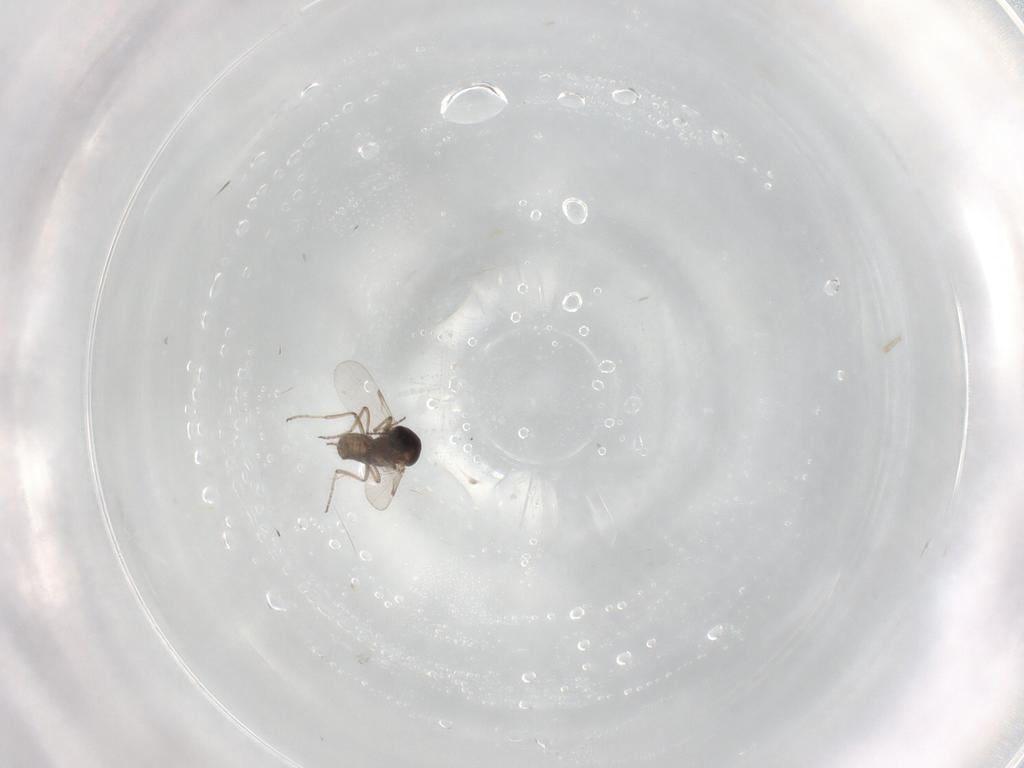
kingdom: Animalia
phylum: Arthropoda
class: Insecta
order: Diptera
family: Ceratopogonidae
